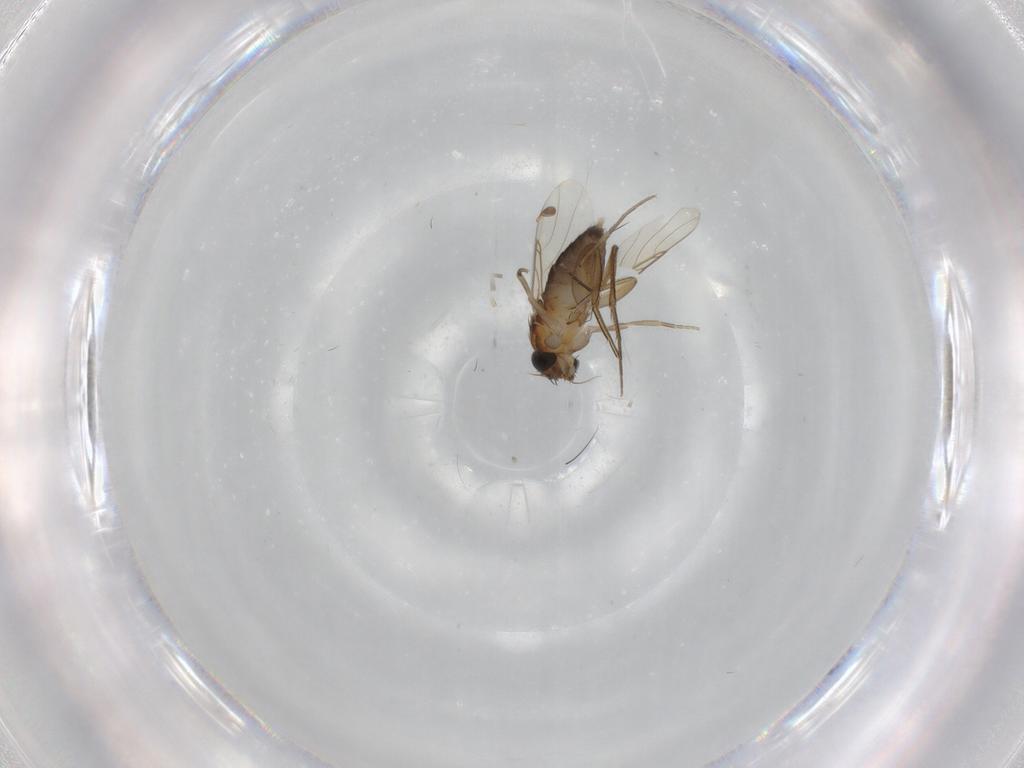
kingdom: Animalia
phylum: Arthropoda
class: Insecta
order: Diptera
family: Phoridae
